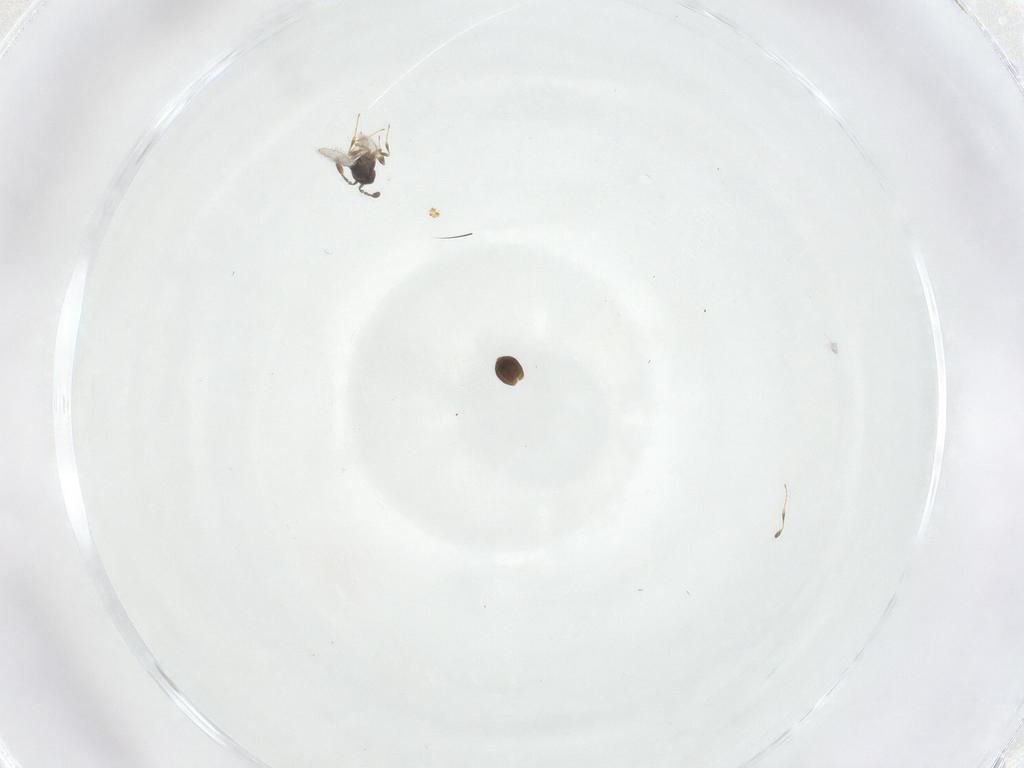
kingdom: Animalia
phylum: Arthropoda
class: Insecta
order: Hymenoptera
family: Scelionidae
